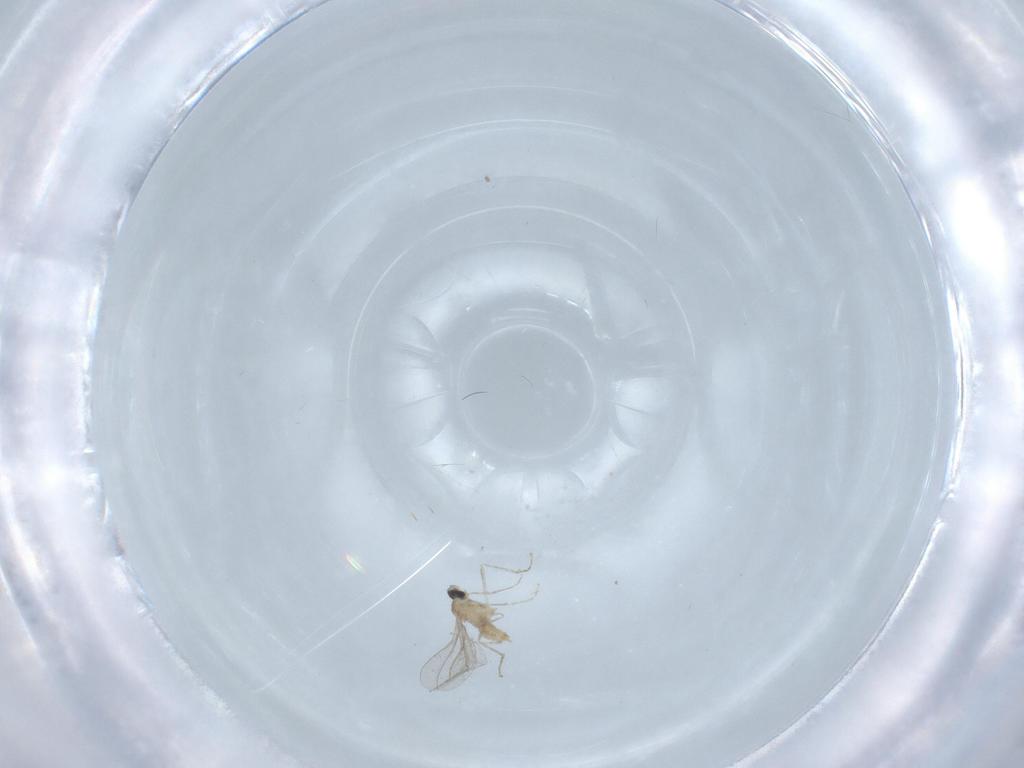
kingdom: Animalia
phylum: Arthropoda
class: Insecta
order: Diptera
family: Cecidomyiidae
